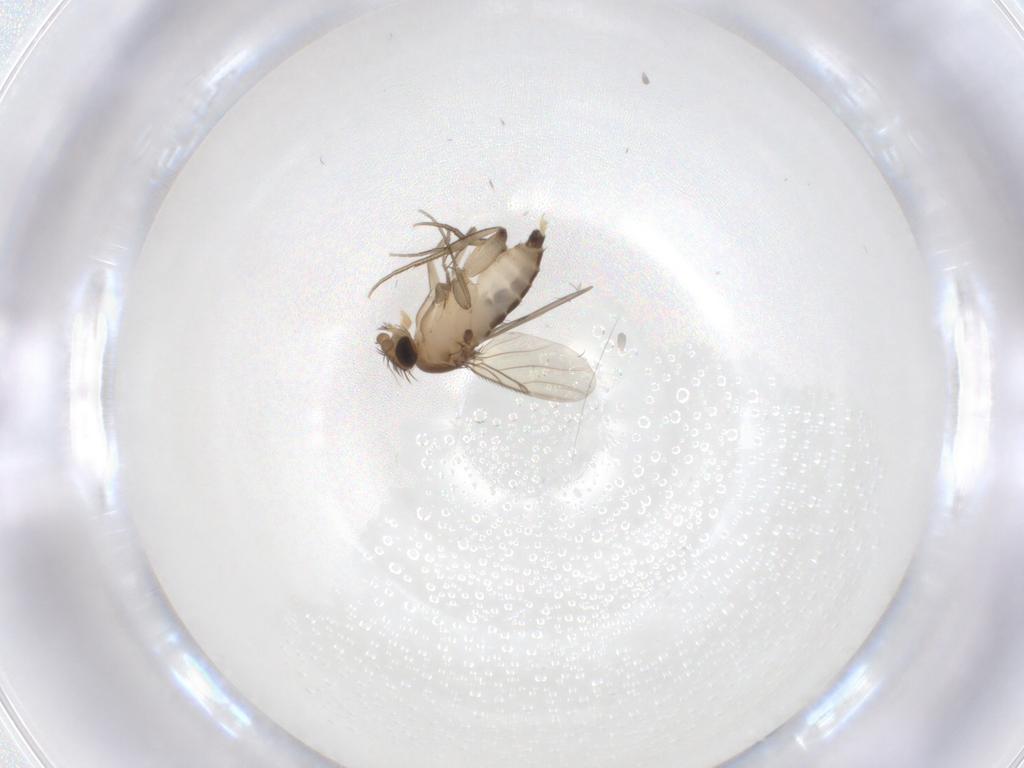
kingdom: Animalia
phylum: Arthropoda
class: Insecta
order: Diptera
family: Phoridae
